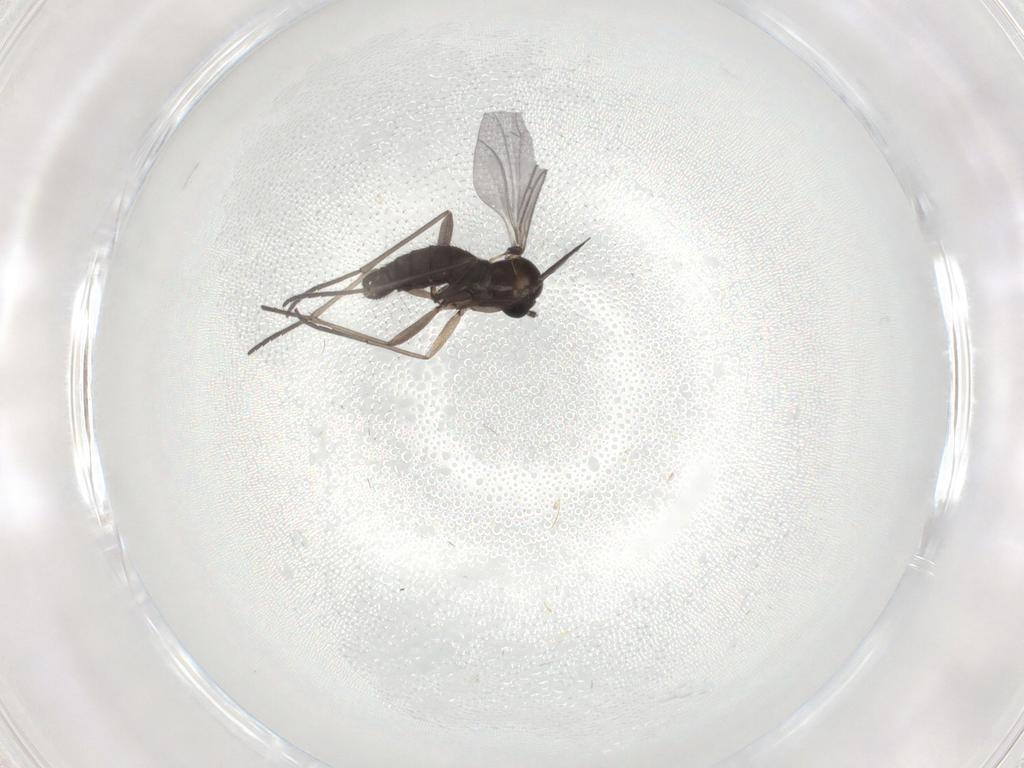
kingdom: Animalia
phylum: Arthropoda
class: Insecta
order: Diptera
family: Sciaridae
